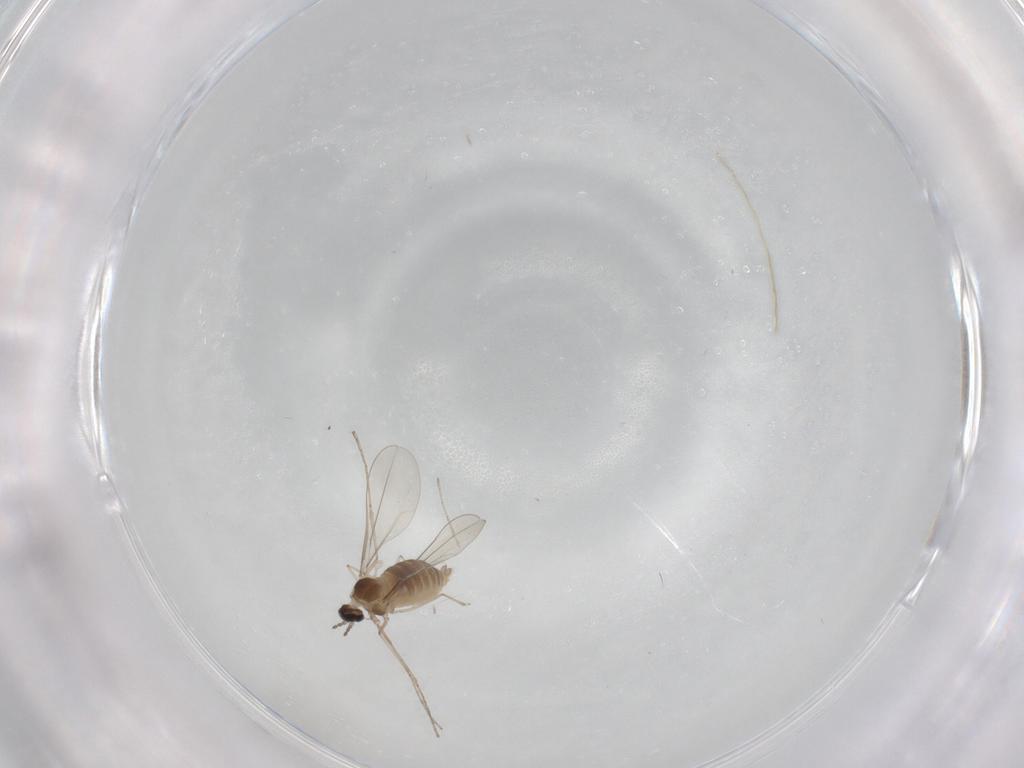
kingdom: Animalia
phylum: Arthropoda
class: Insecta
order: Diptera
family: Cecidomyiidae
